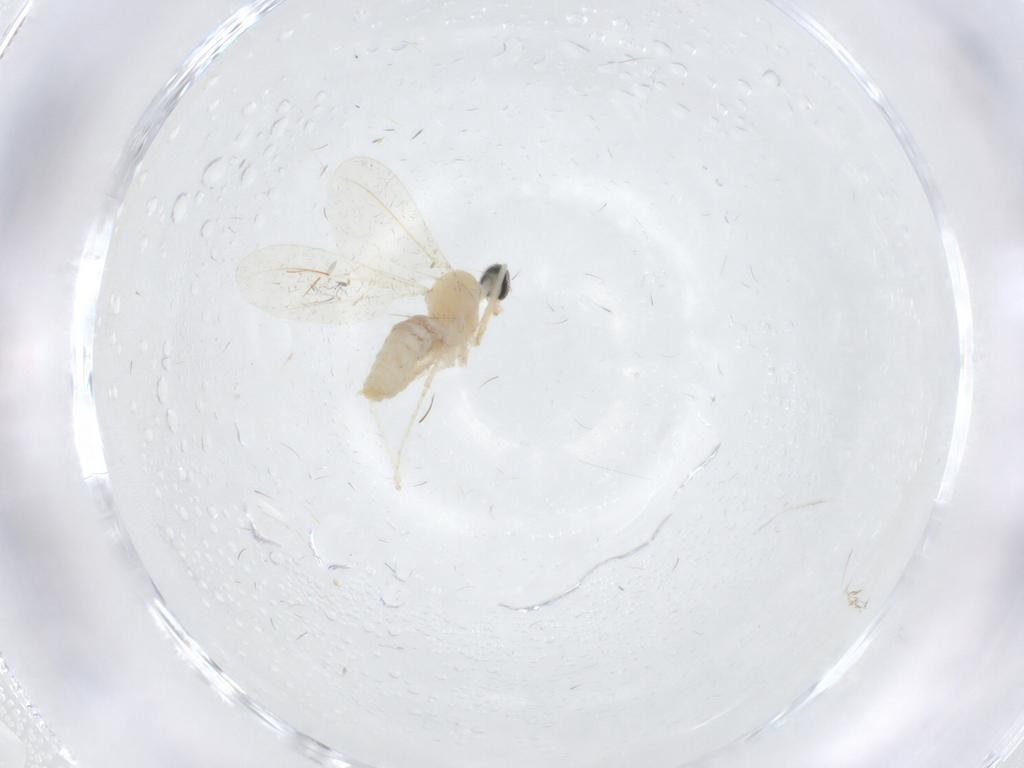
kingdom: Animalia
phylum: Arthropoda
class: Insecta
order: Diptera
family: Cecidomyiidae
